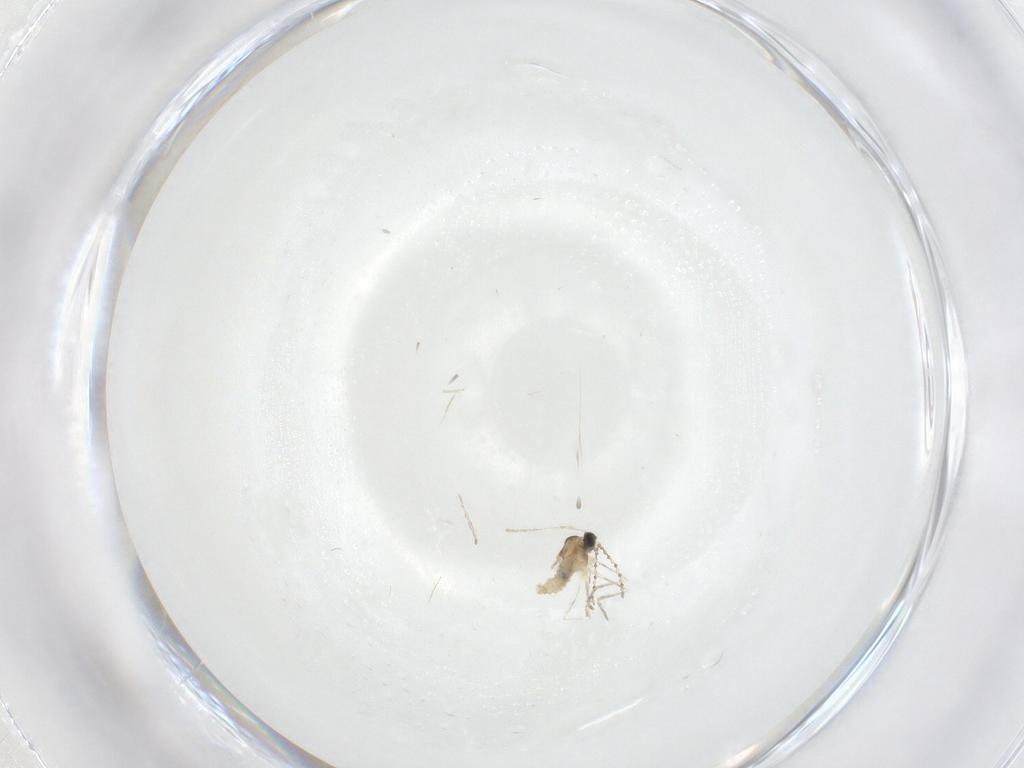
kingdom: Animalia
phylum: Arthropoda
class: Insecta
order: Diptera
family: Cecidomyiidae
